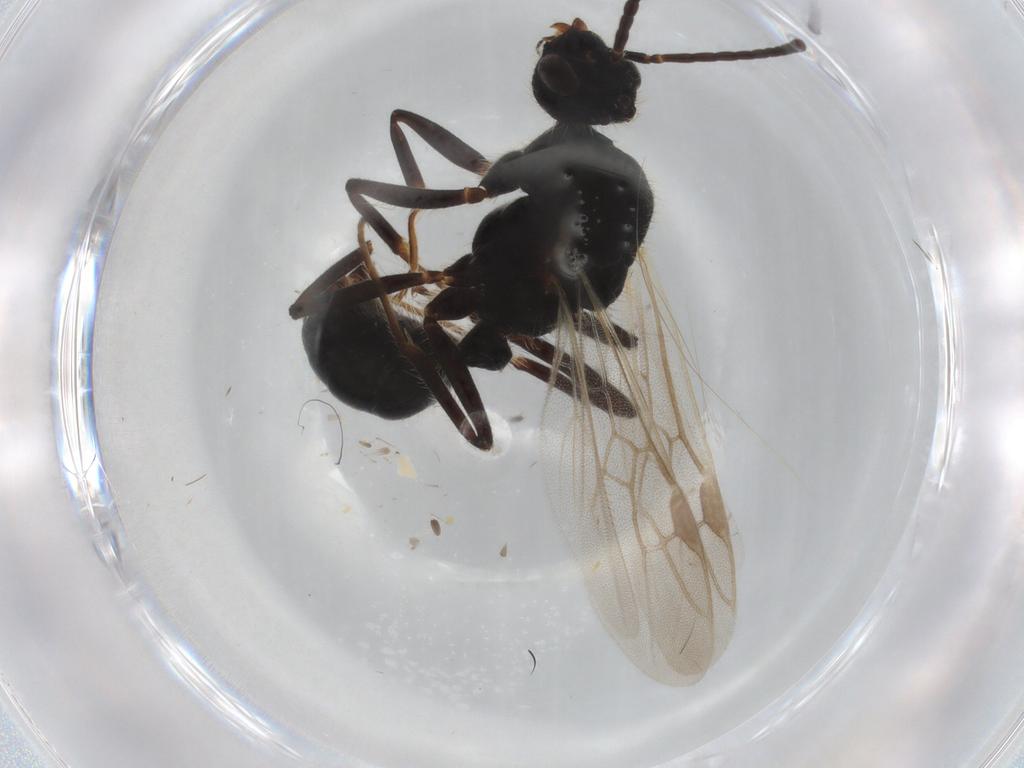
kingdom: Animalia
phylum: Arthropoda
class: Insecta
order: Hymenoptera
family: Formicidae
